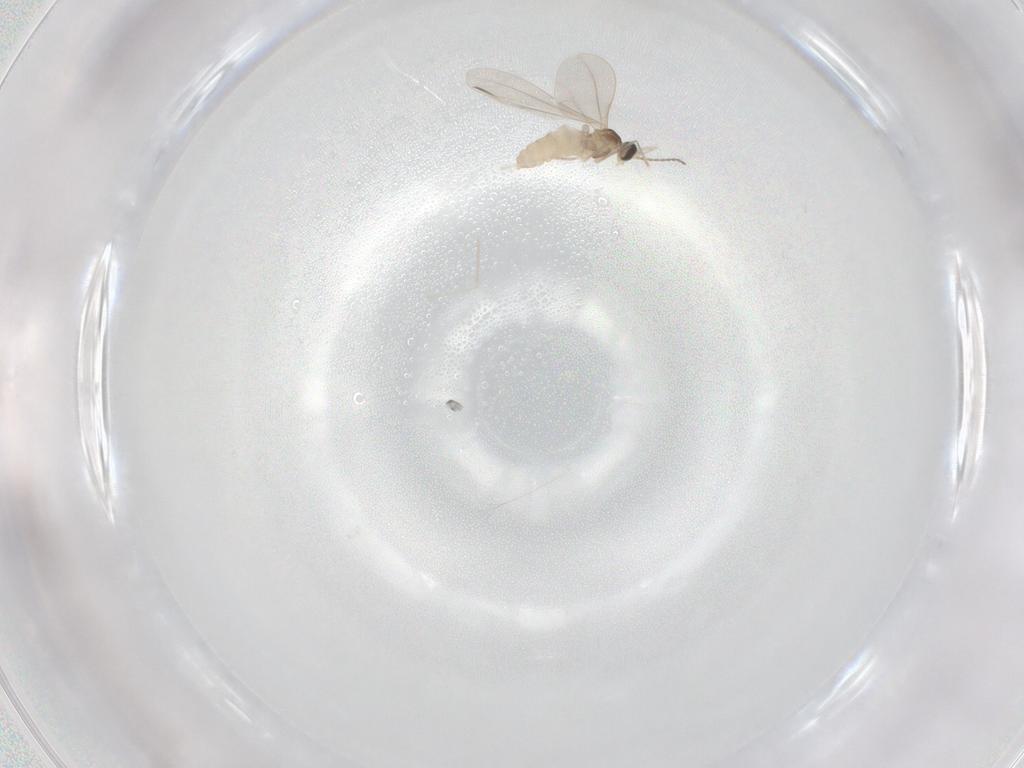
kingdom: Animalia
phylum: Arthropoda
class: Insecta
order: Diptera
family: Cecidomyiidae
